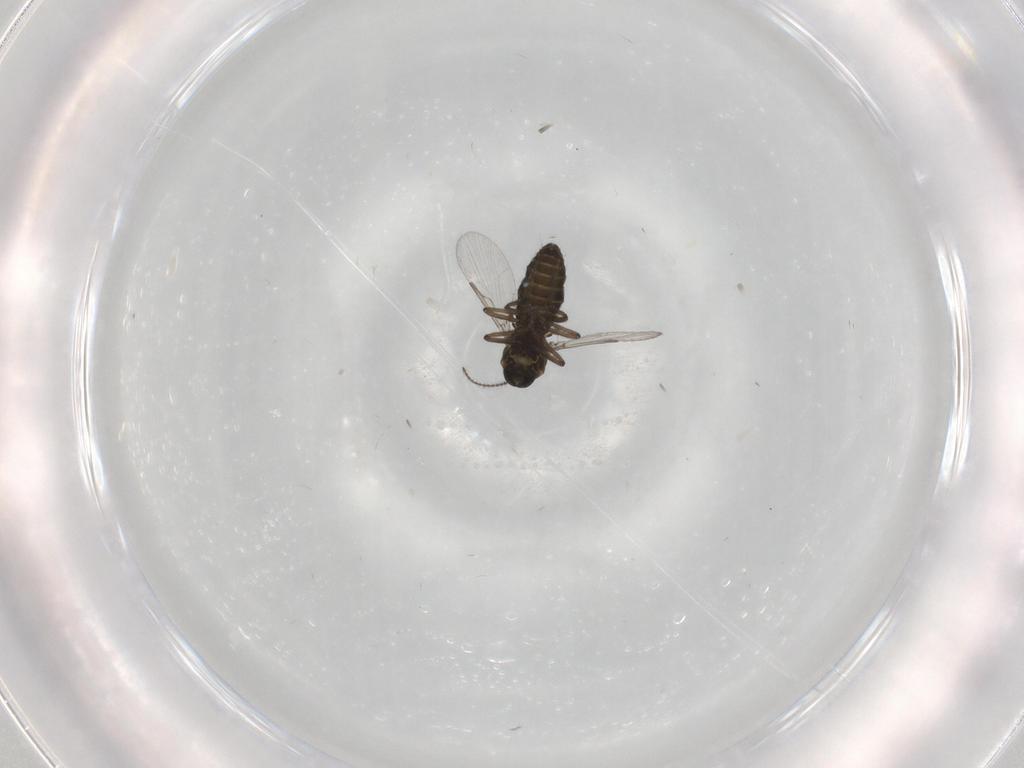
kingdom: Animalia
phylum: Arthropoda
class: Insecta
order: Diptera
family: Ceratopogonidae
